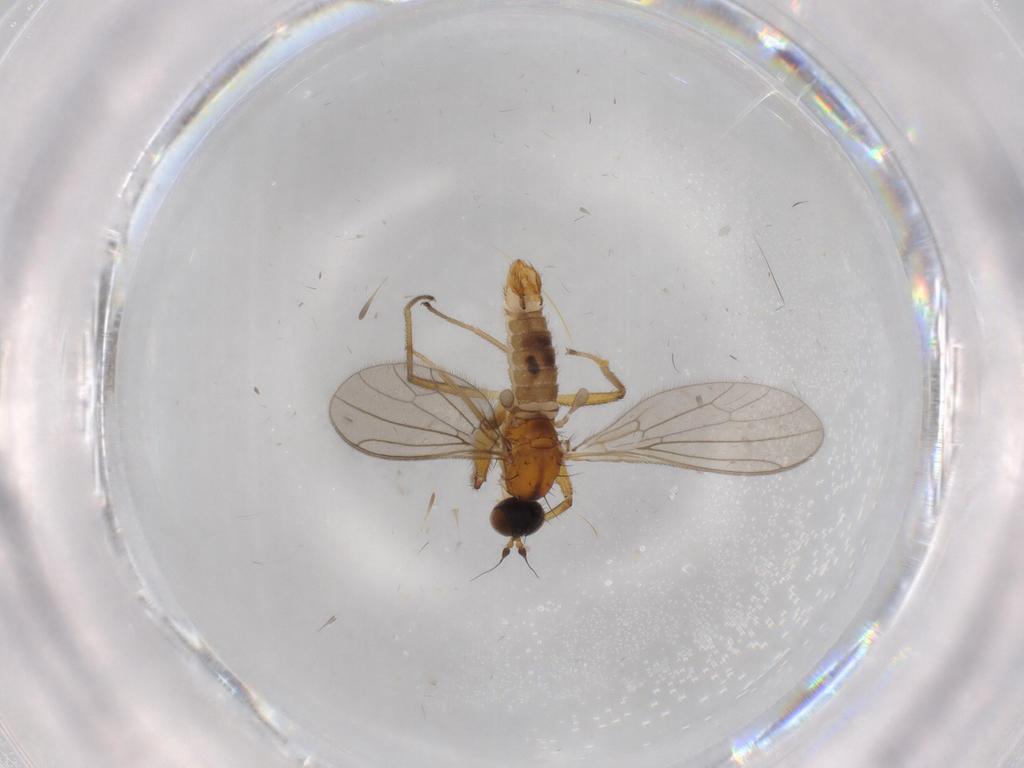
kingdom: Animalia
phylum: Arthropoda
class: Insecta
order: Diptera
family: Empididae
